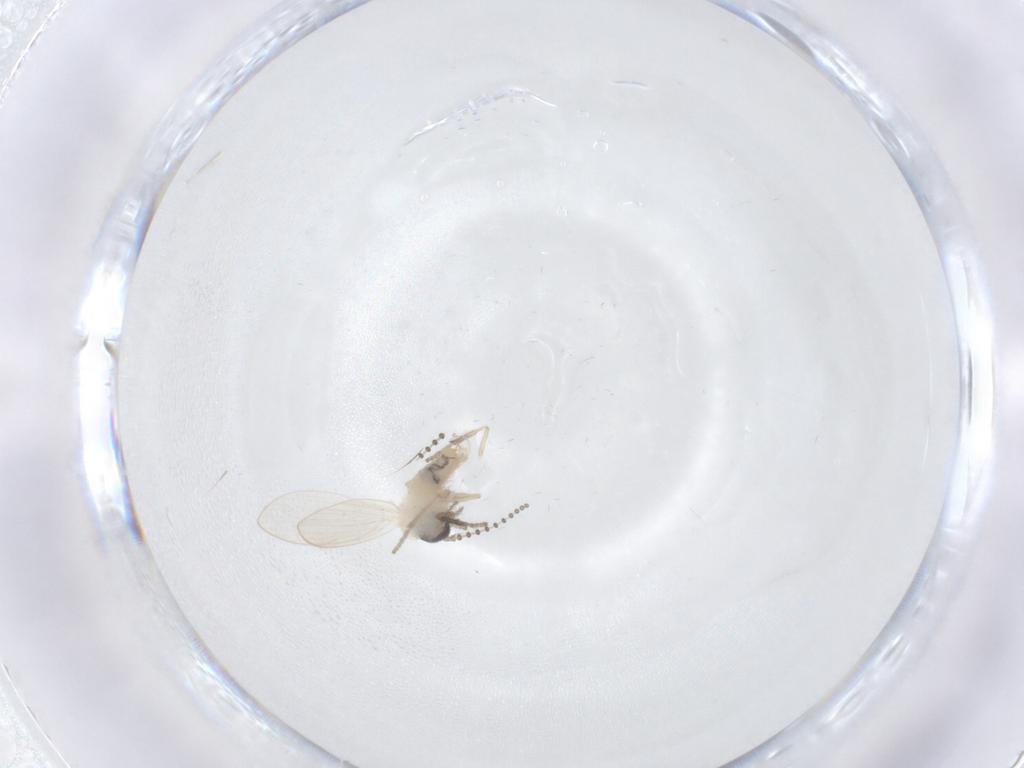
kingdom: Animalia
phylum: Arthropoda
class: Insecta
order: Diptera
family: Psychodidae
